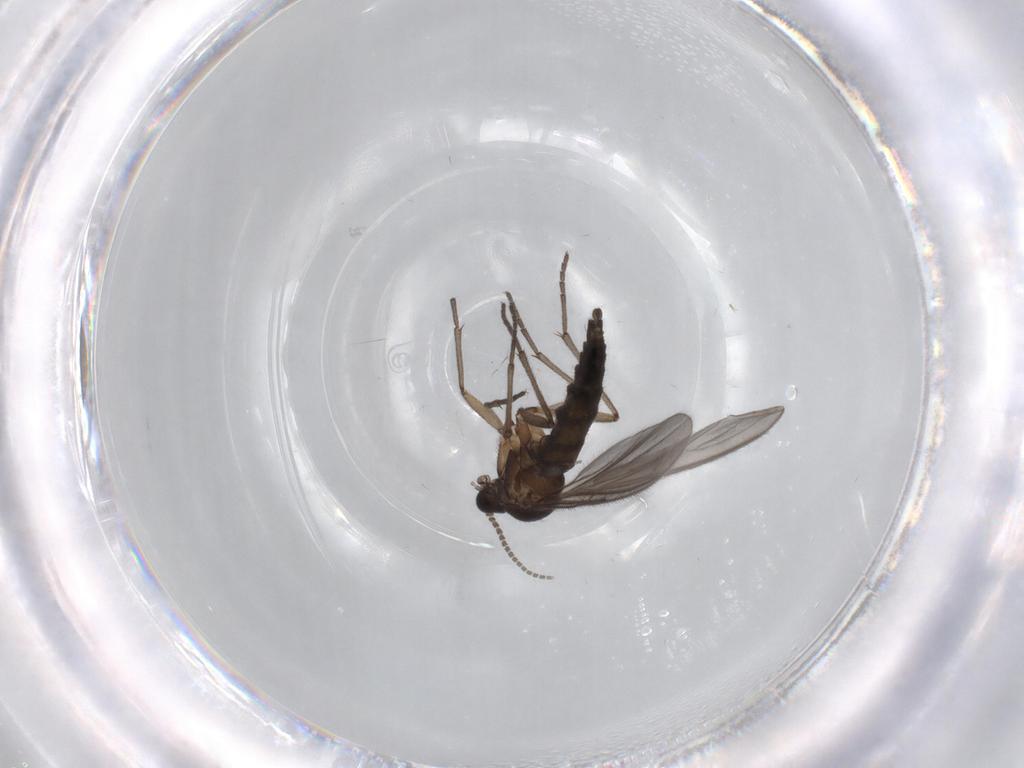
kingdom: Animalia
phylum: Arthropoda
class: Insecta
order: Diptera
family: Sciaridae
